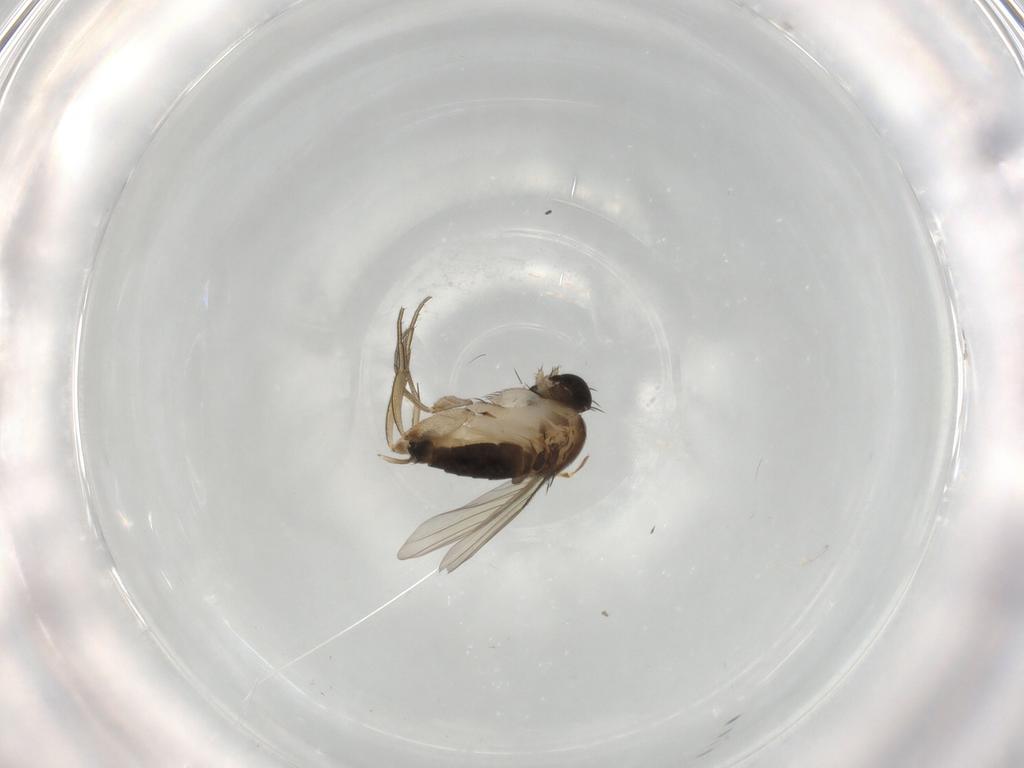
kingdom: Animalia
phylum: Arthropoda
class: Insecta
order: Diptera
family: Phoridae
